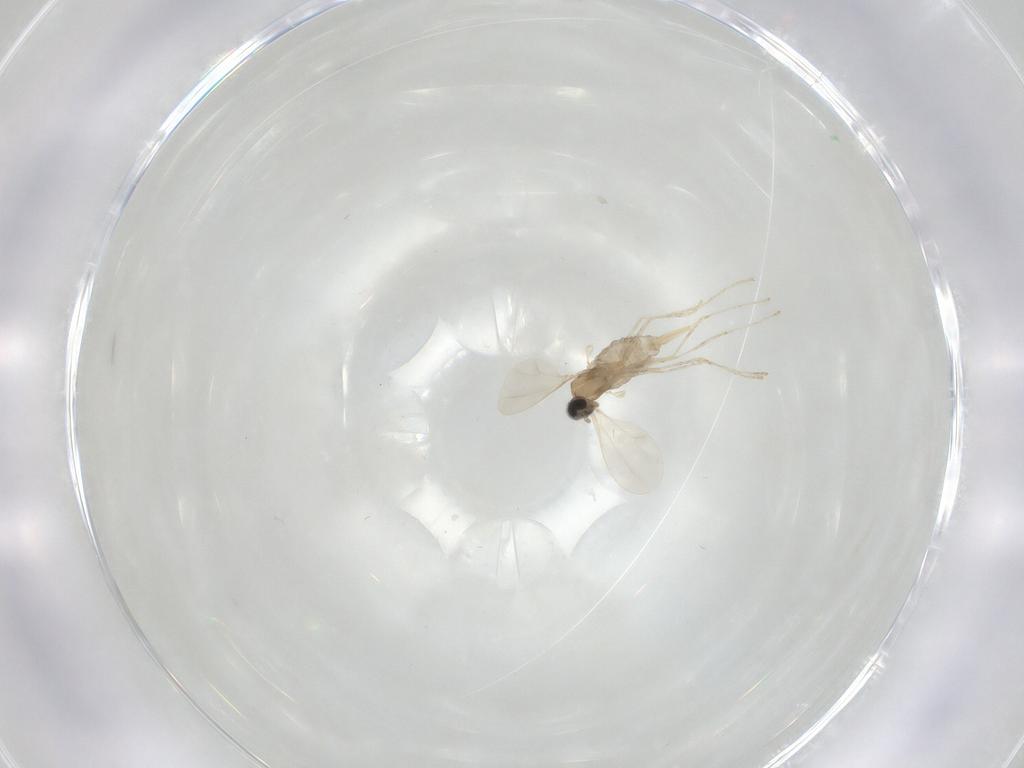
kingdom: Animalia
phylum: Arthropoda
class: Insecta
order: Diptera
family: Cecidomyiidae
